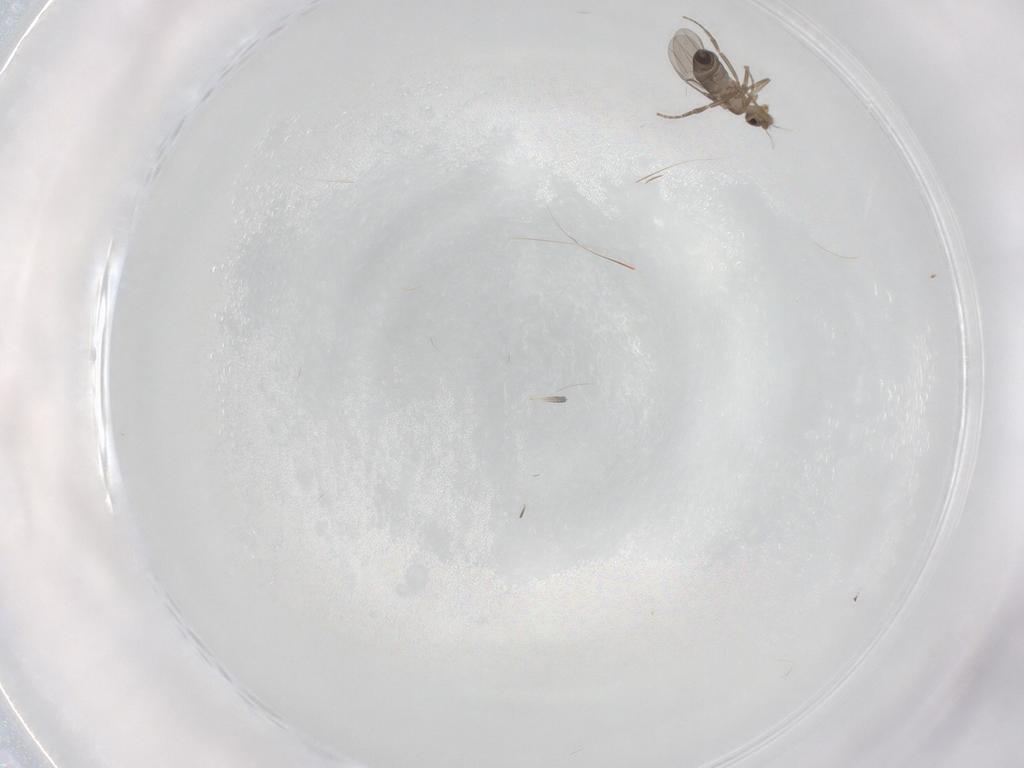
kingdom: Animalia
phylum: Arthropoda
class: Insecta
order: Diptera
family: Phoridae
